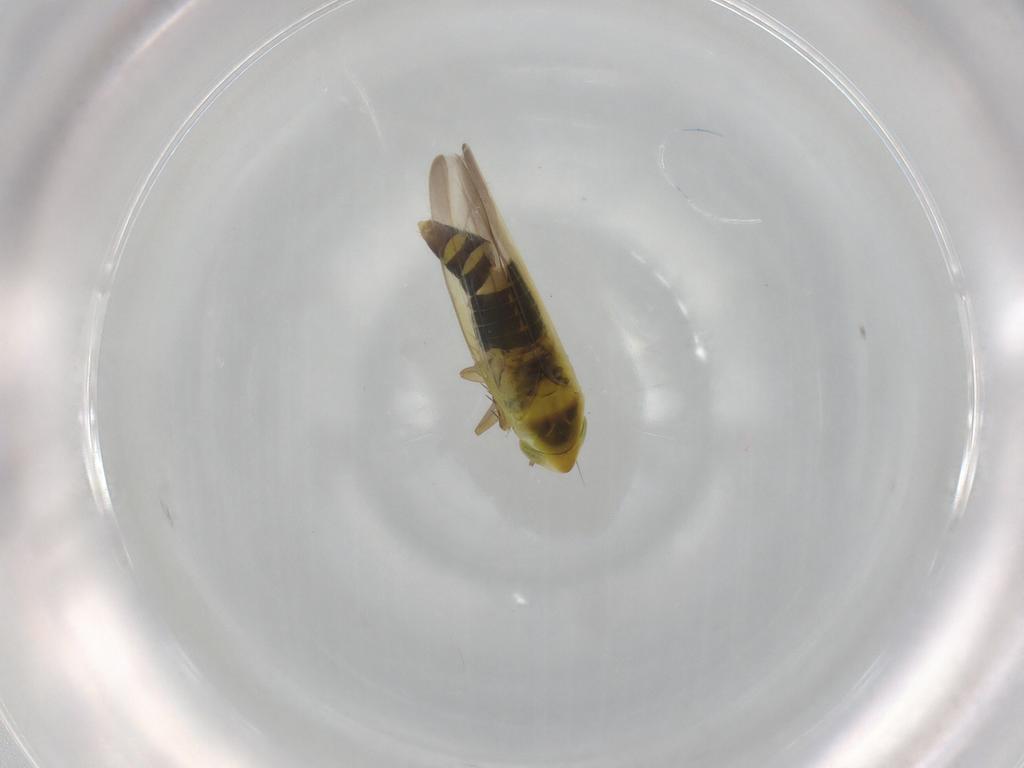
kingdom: Animalia
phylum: Arthropoda
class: Insecta
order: Hemiptera
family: Cicadellidae
